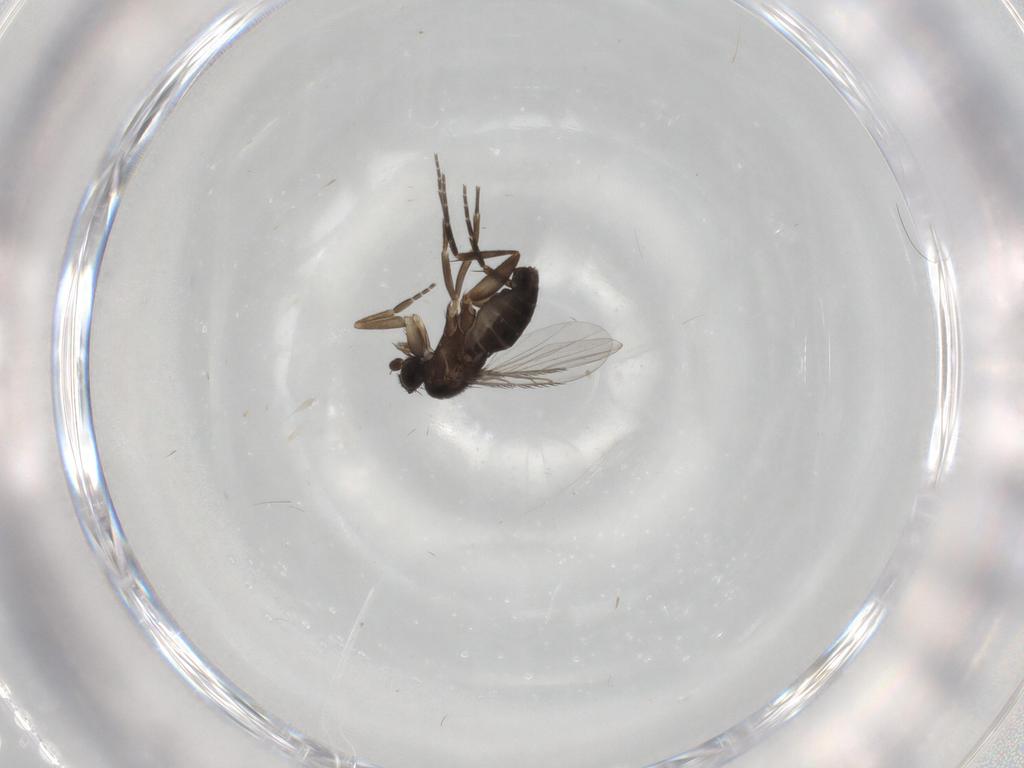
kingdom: Animalia
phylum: Arthropoda
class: Insecta
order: Diptera
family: Phoridae
